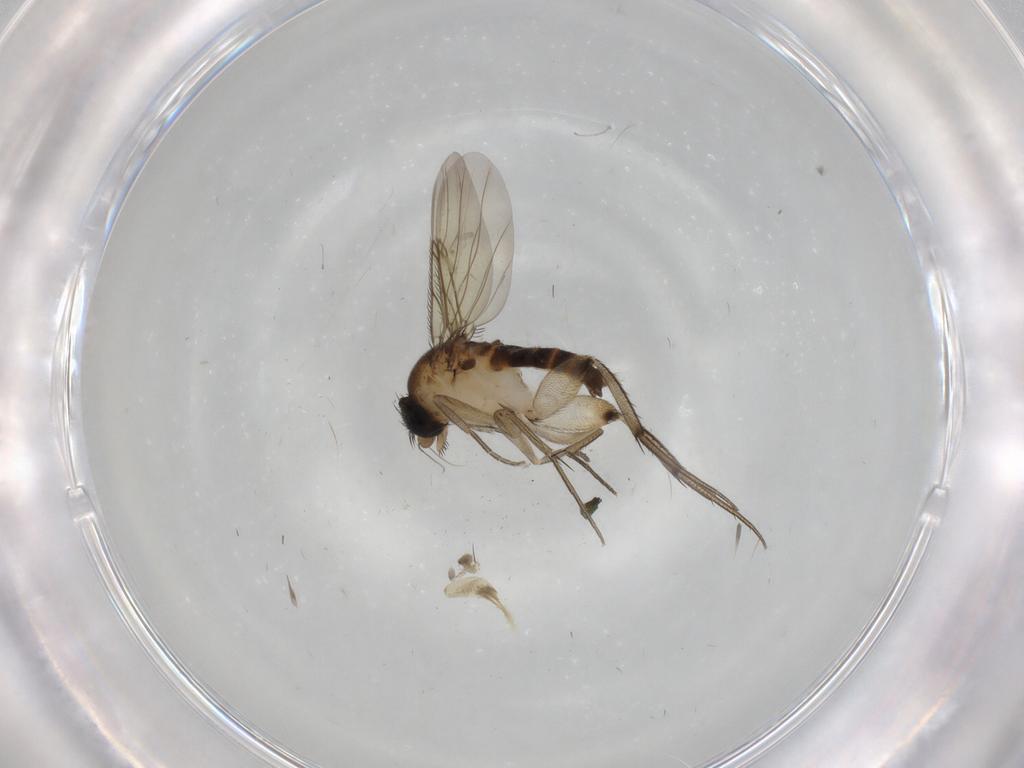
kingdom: Animalia
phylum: Arthropoda
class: Insecta
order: Diptera
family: Phoridae
